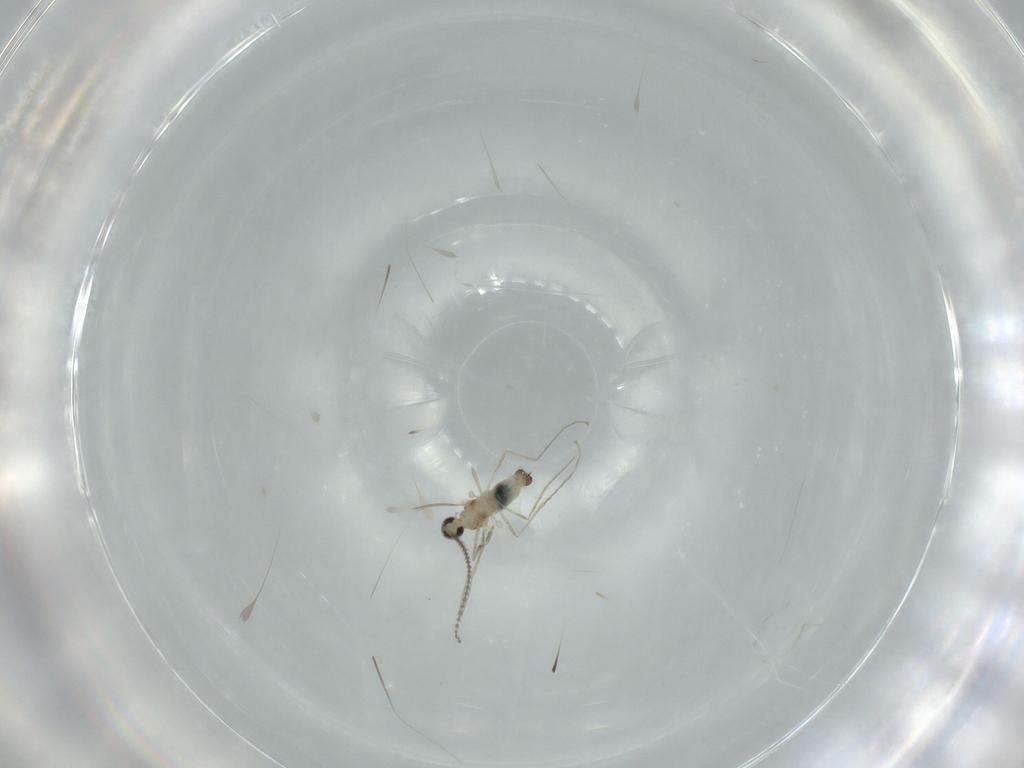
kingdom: Animalia
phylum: Arthropoda
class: Insecta
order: Diptera
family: Cecidomyiidae
